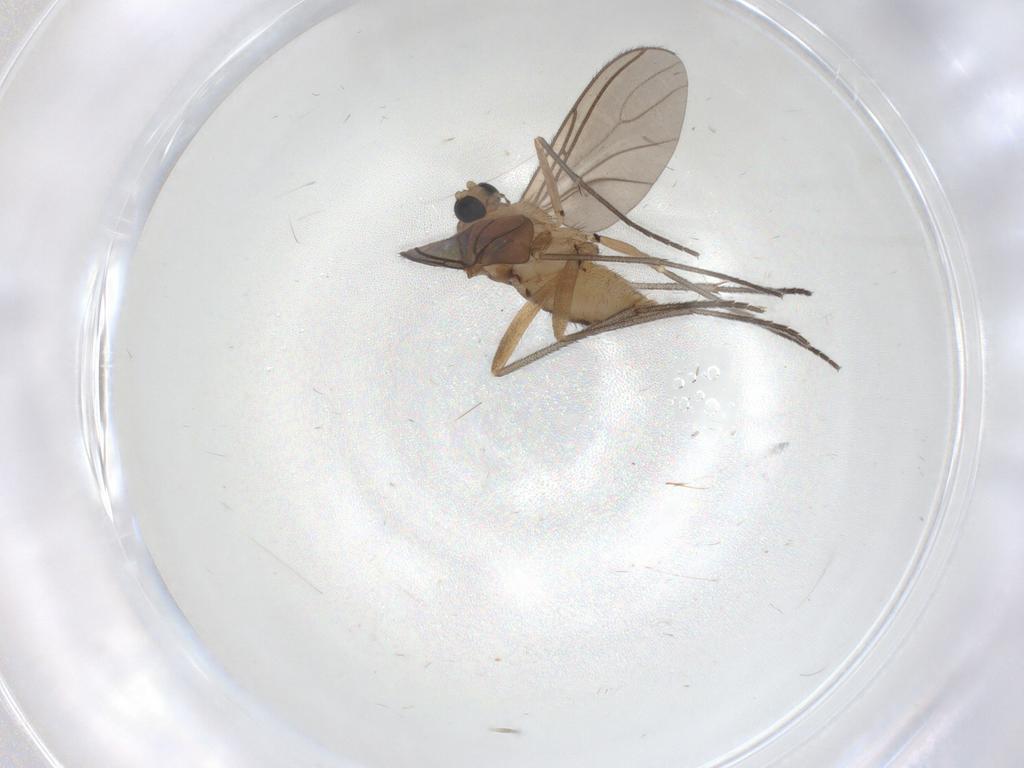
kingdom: Animalia
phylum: Arthropoda
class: Insecta
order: Diptera
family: Sciaridae
